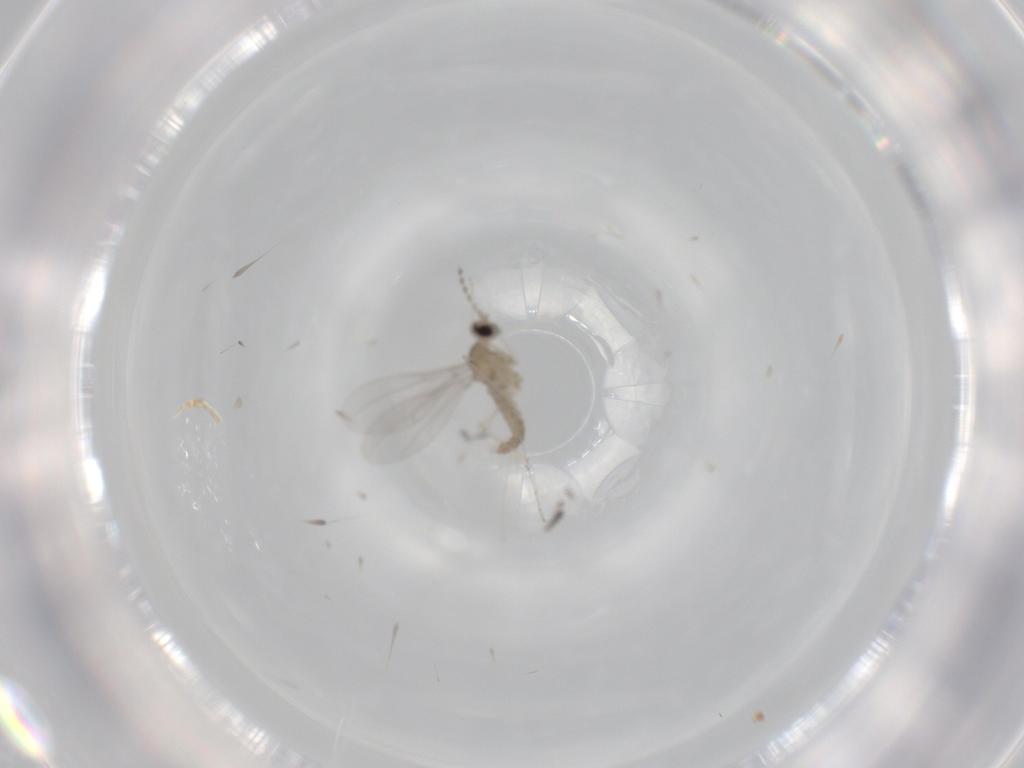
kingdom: Animalia
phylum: Arthropoda
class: Insecta
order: Diptera
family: Cecidomyiidae
